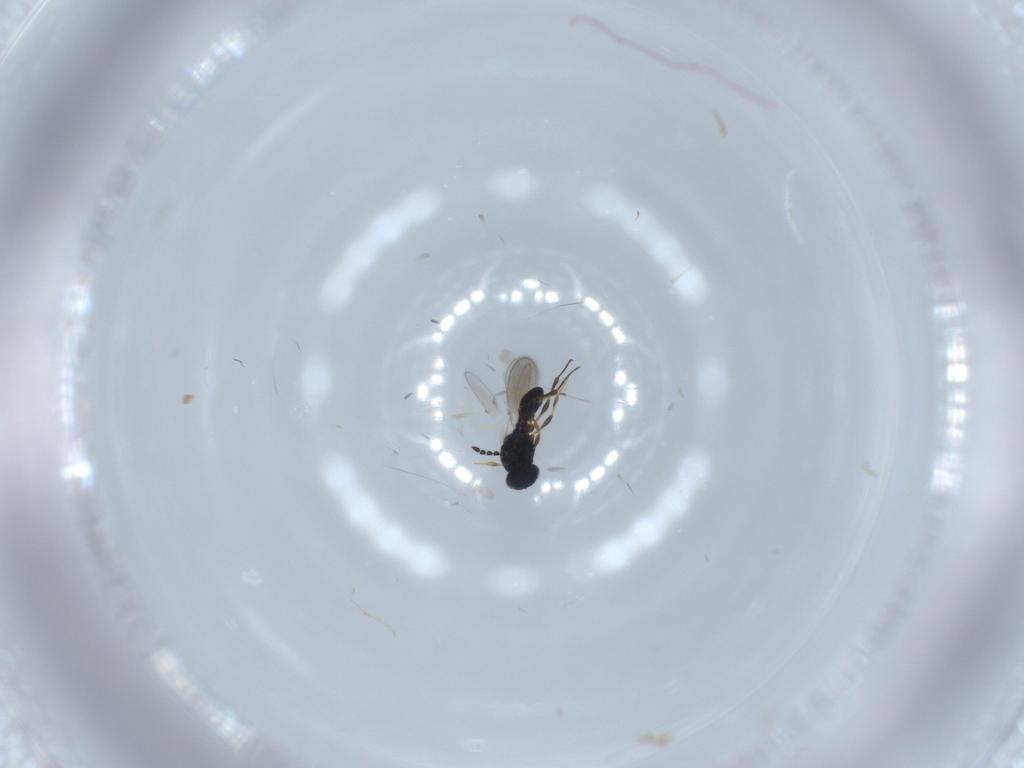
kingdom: Animalia
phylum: Arthropoda
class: Insecta
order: Hymenoptera
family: Platygastridae
